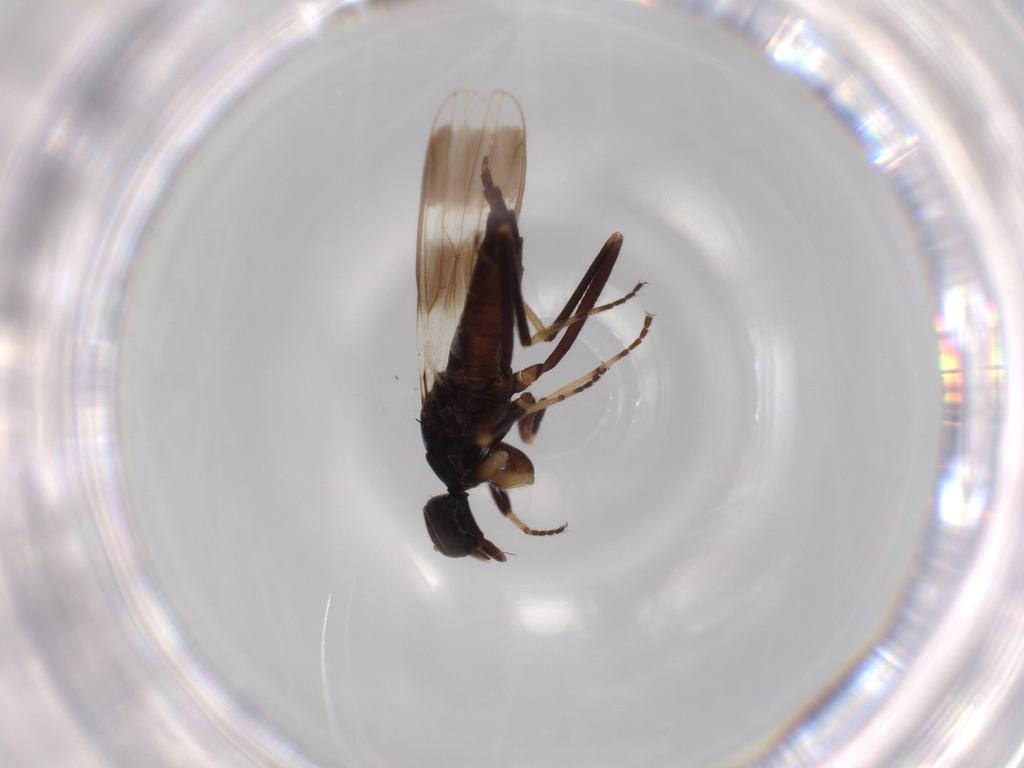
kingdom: Animalia
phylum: Arthropoda
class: Insecta
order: Diptera
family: Hybotidae
